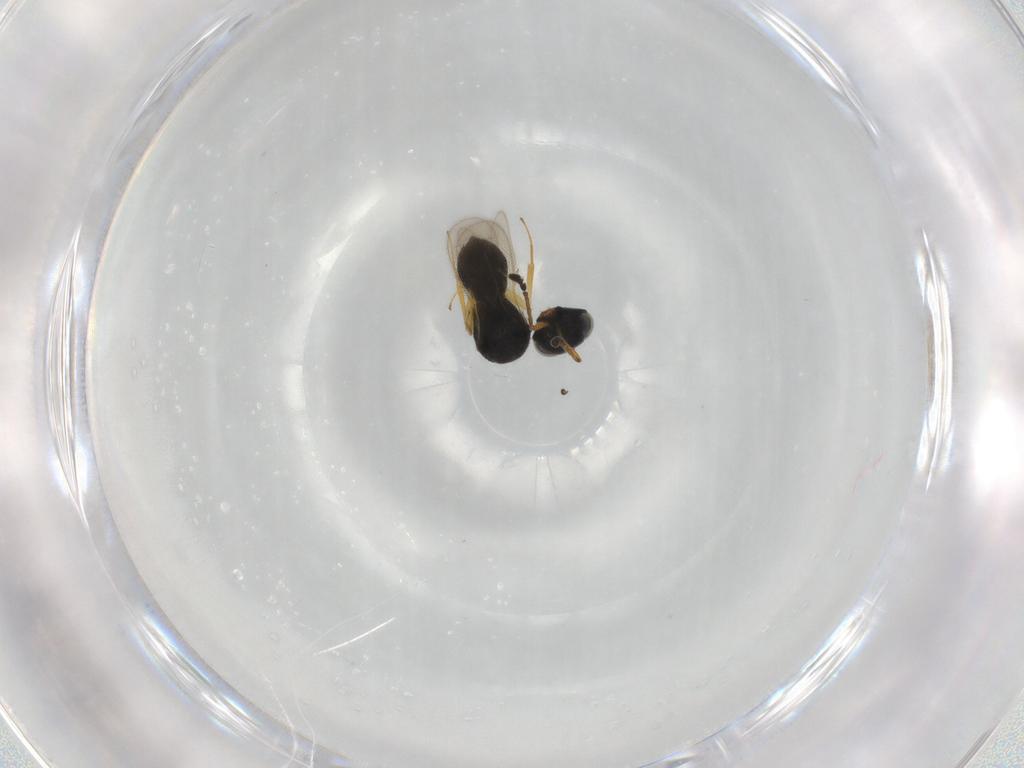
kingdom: Animalia
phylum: Arthropoda
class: Insecta
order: Hymenoptera
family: Scelionidae
